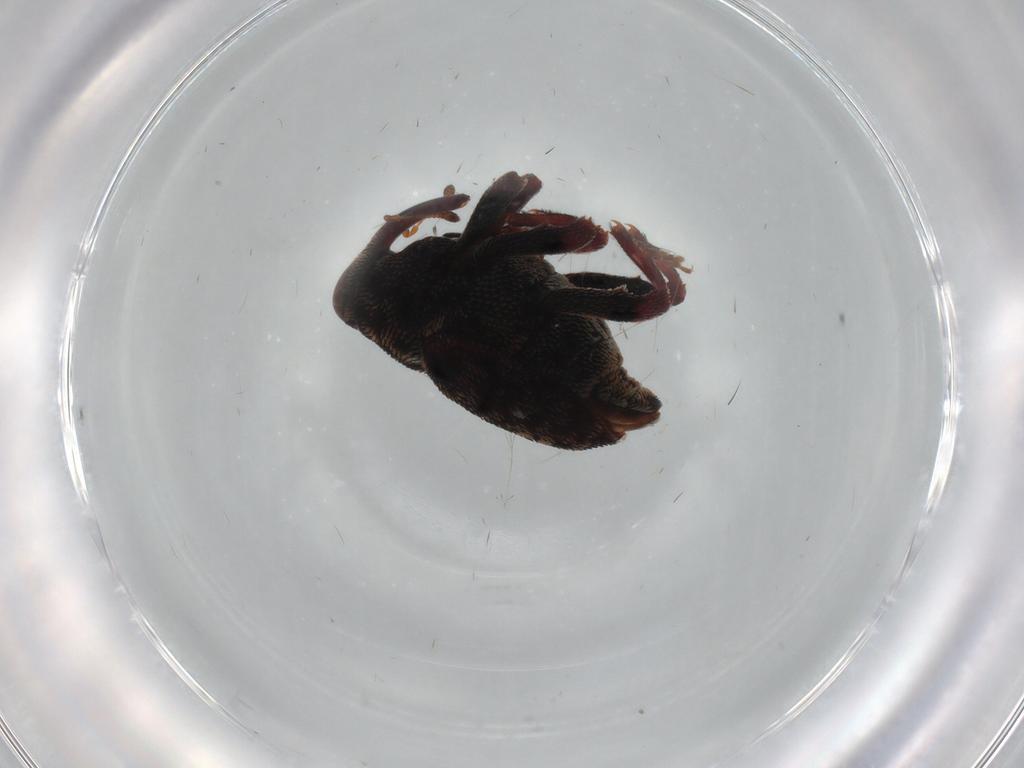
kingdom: Animalia
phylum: Arthropoda
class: Insecta
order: Coleoptera
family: Curculionidae
